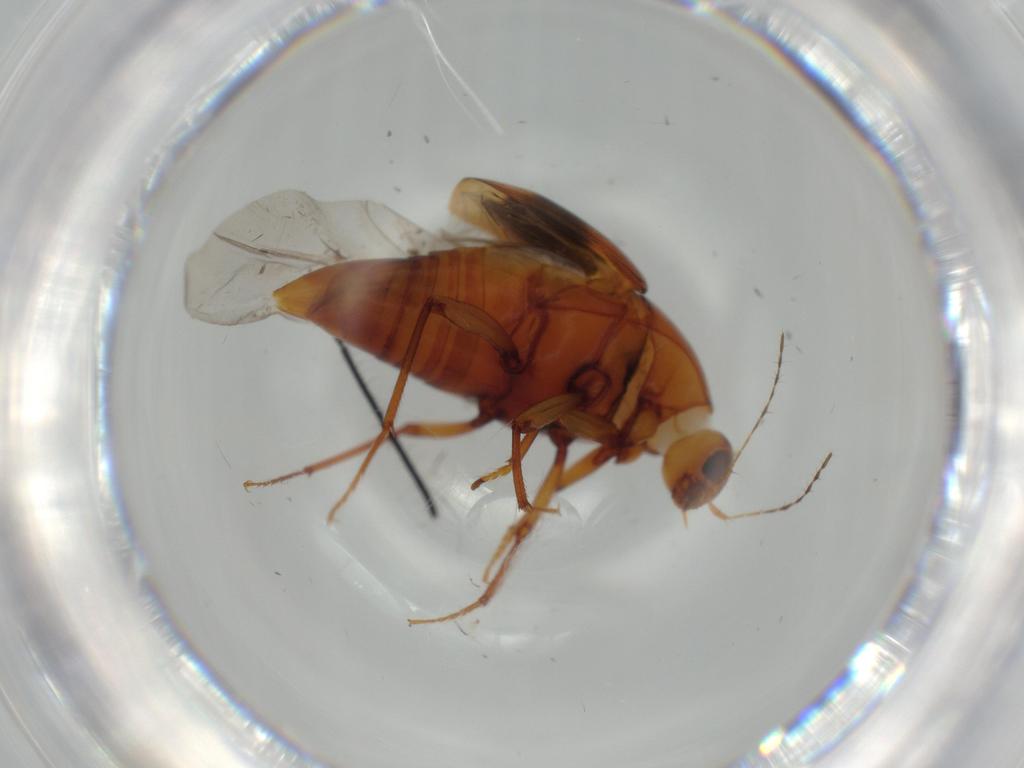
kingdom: Animalia
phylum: Arthropoda
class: Insecta
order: Coleoptera
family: Staphylinidae
